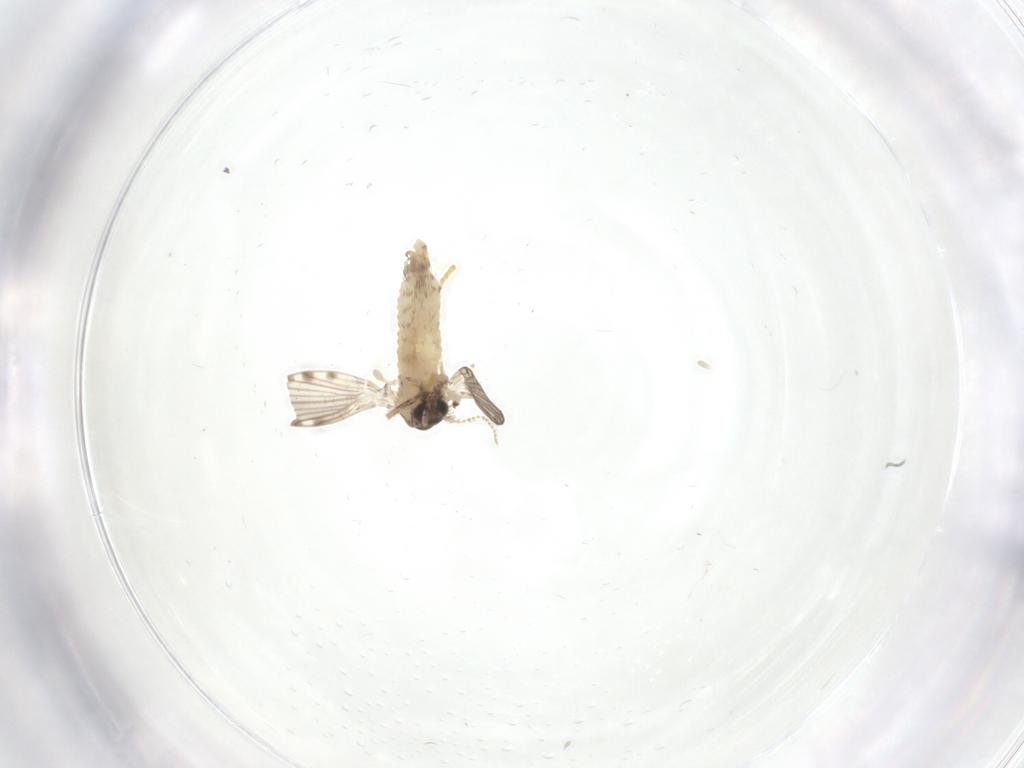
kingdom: Animalia
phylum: Arthropoda
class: Insecta
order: Diptera
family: Psychodidae
